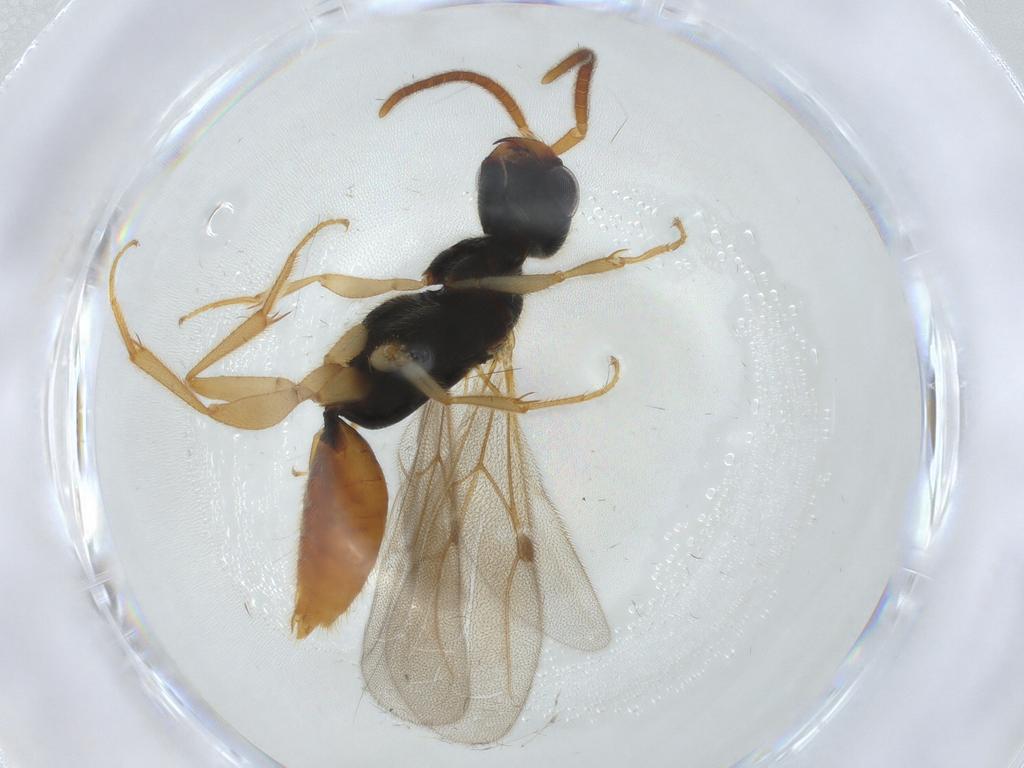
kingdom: Animalia
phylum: Arthropoda
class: Insecta
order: Hymenoptera
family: Bethylidae
